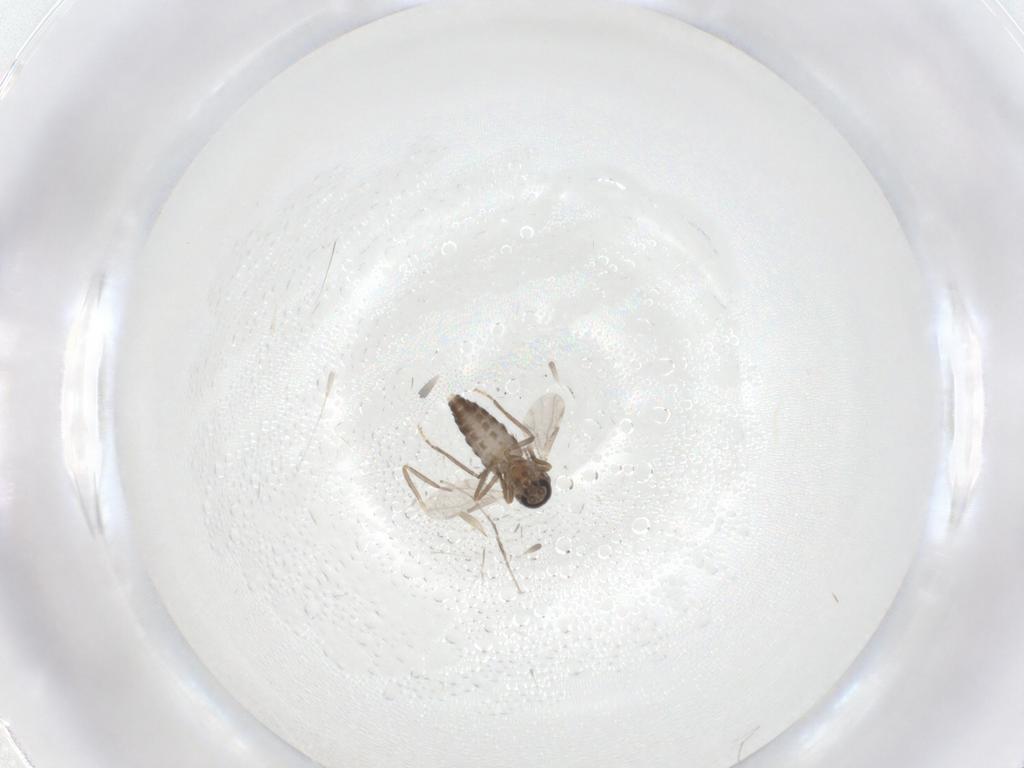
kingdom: Animalia
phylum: Arthropoda
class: Insecta
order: Diptera
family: Ceratopogonidae
